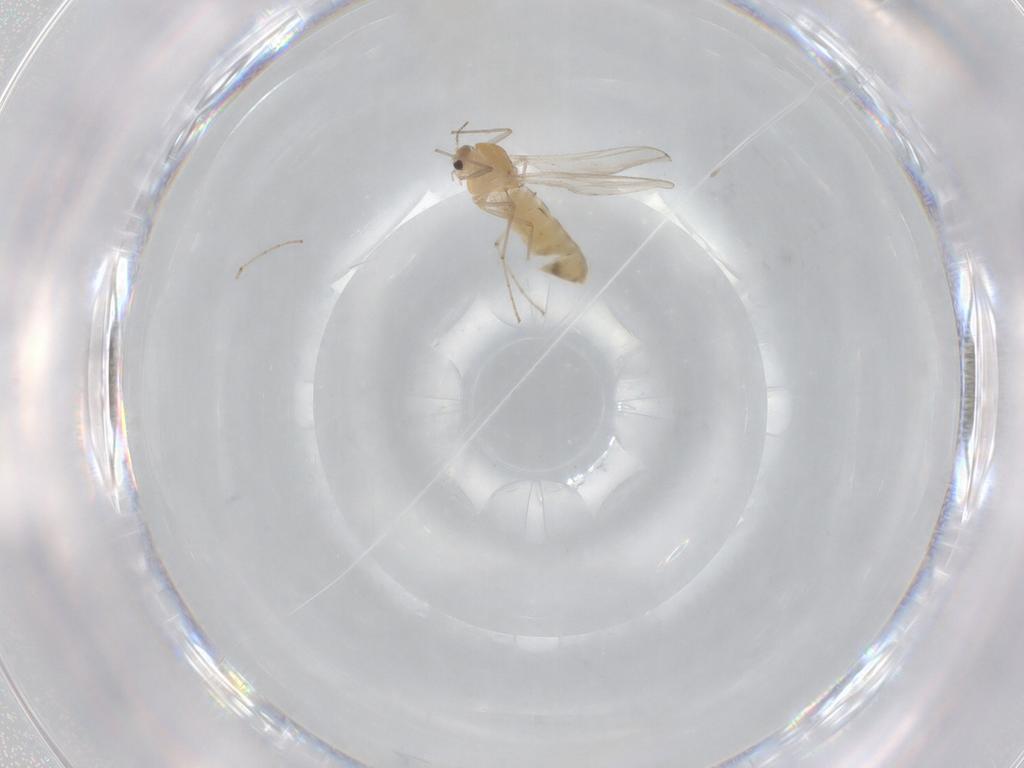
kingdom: Animalia
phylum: Arthropoda
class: Insecta
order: Diptera
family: Chironomidae
